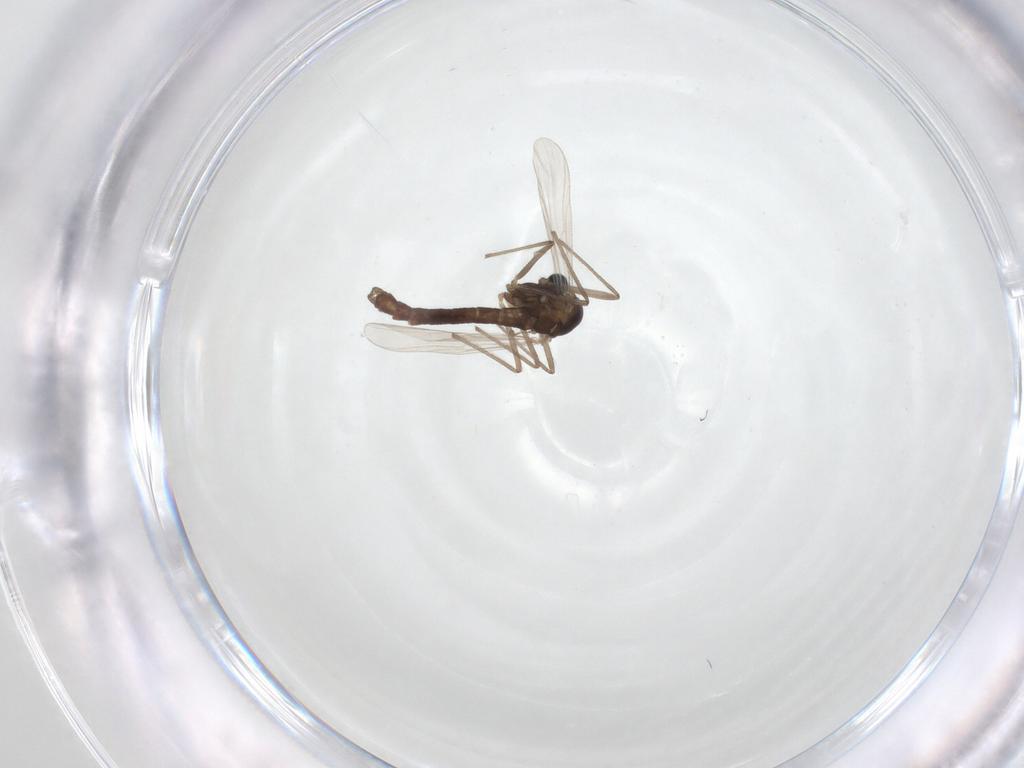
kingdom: Animalia
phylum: Arthropoda
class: Insecta
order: Diptera
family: Chironomidae
